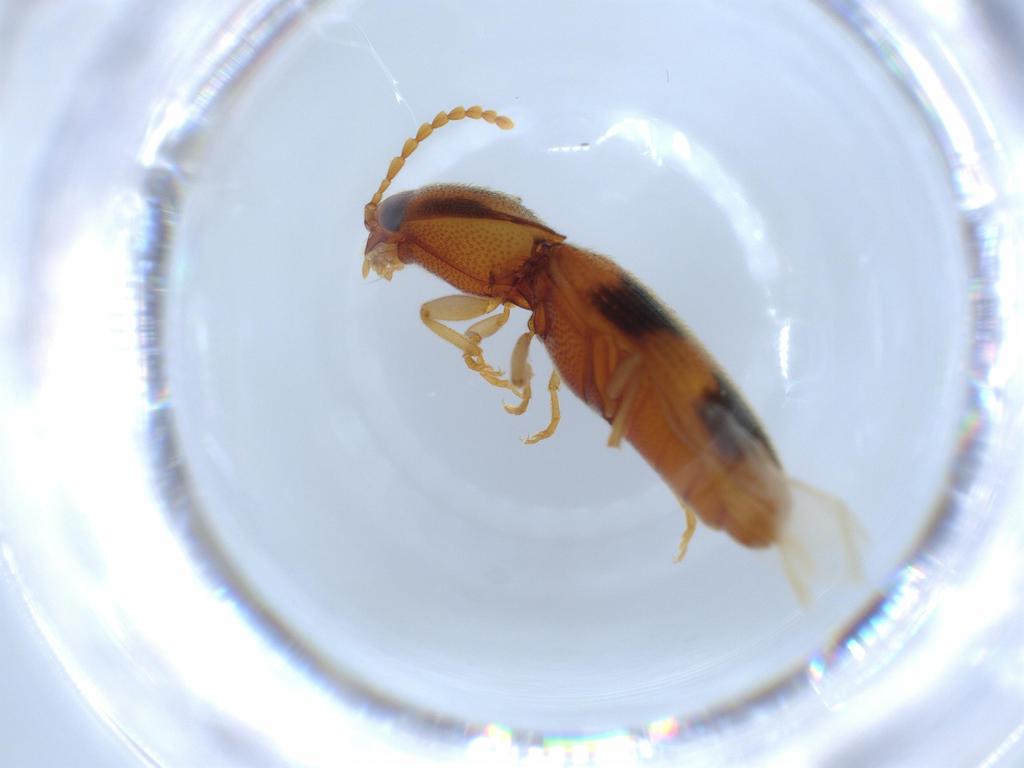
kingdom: Animalia
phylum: Arthropoda
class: Insecta
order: Coleoptera
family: Elateridae
